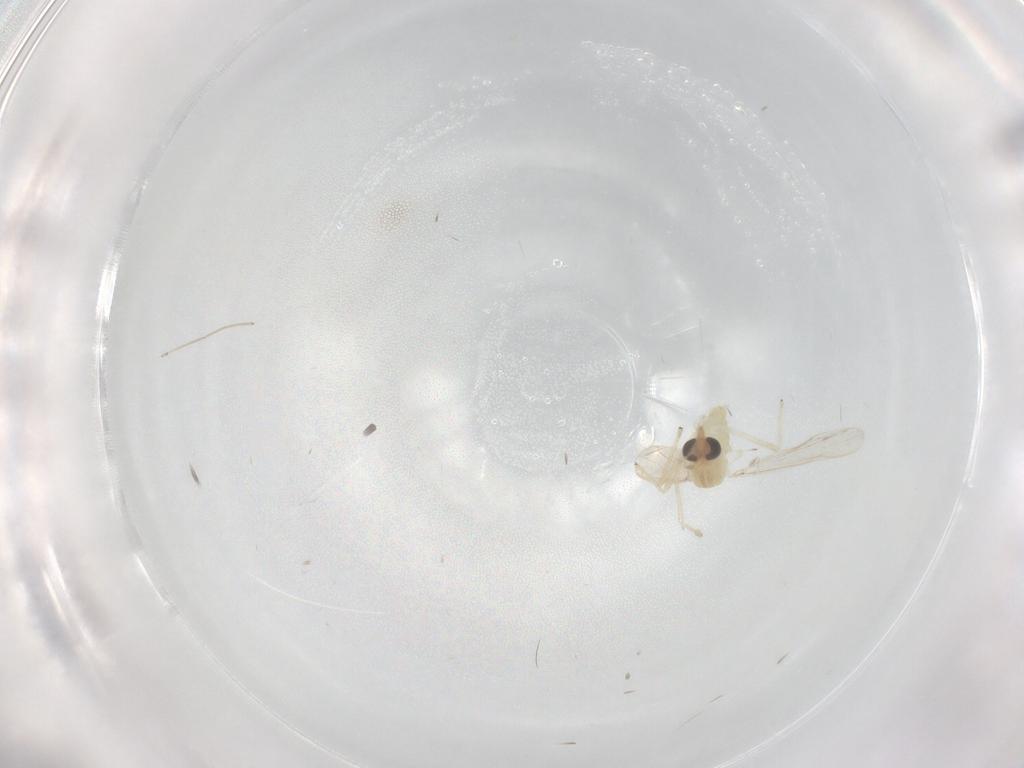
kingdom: Animalia
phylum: Arthropoda
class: Insecta
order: Diptera
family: Chironomidae
